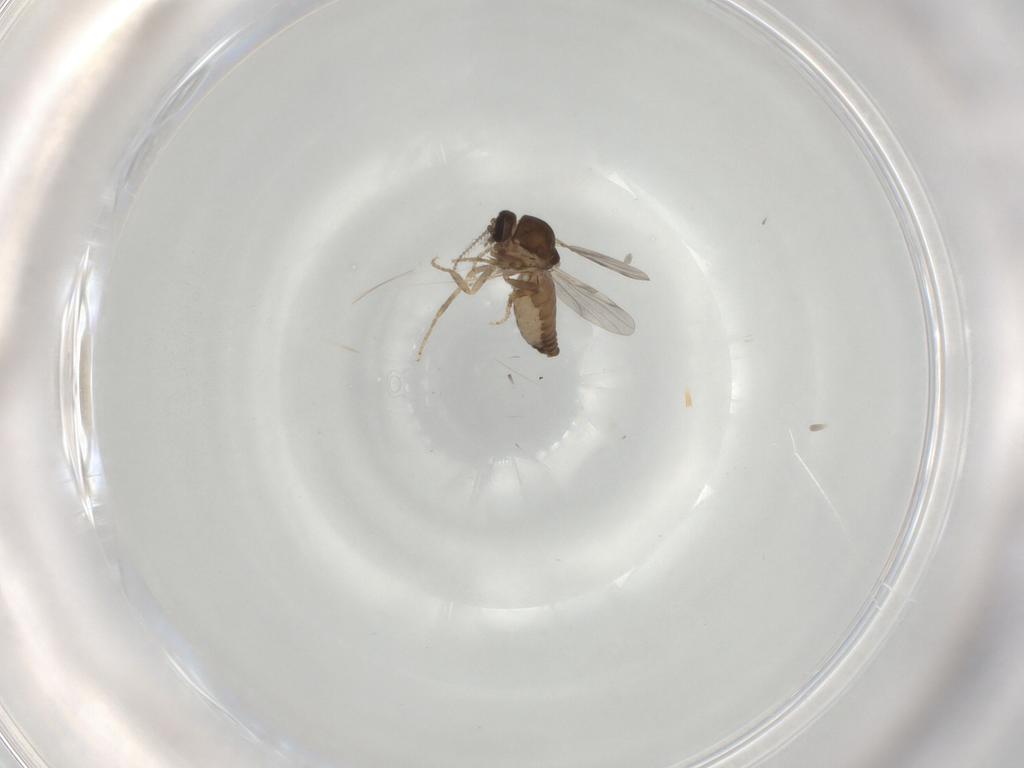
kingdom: Animalia
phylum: Arthropoda
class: Insecta
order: Diptera
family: Ceratopogonidae
